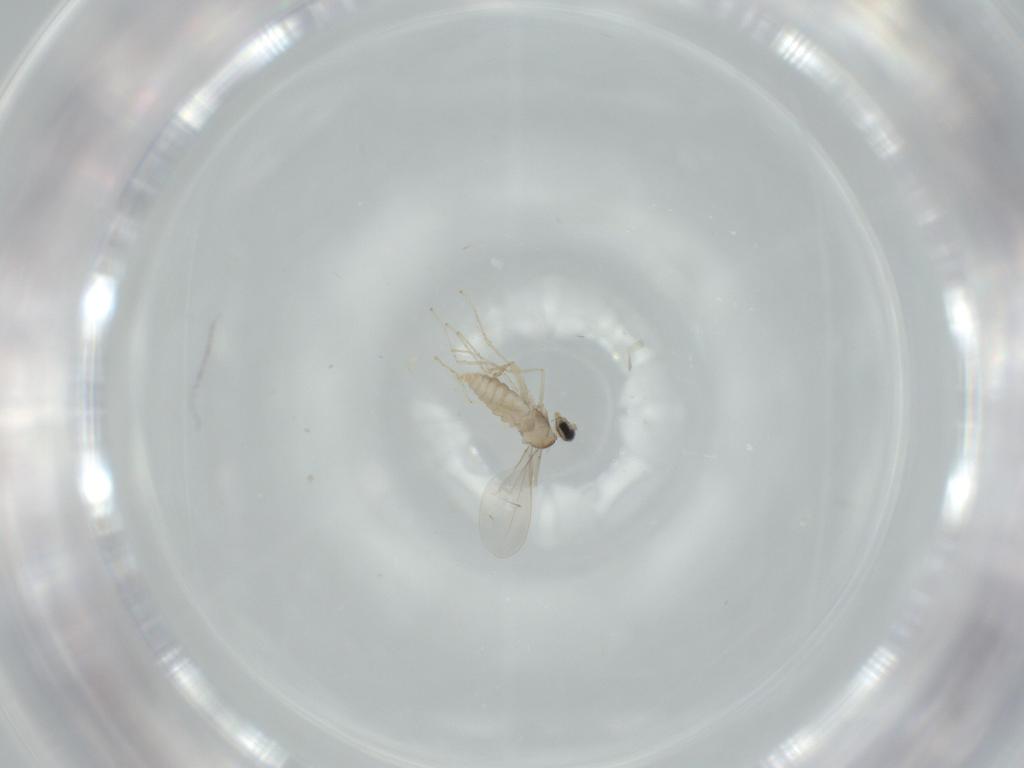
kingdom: Animalia
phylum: Arthropoda
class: Insecta
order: Diptera
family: Cecidomyiidae
